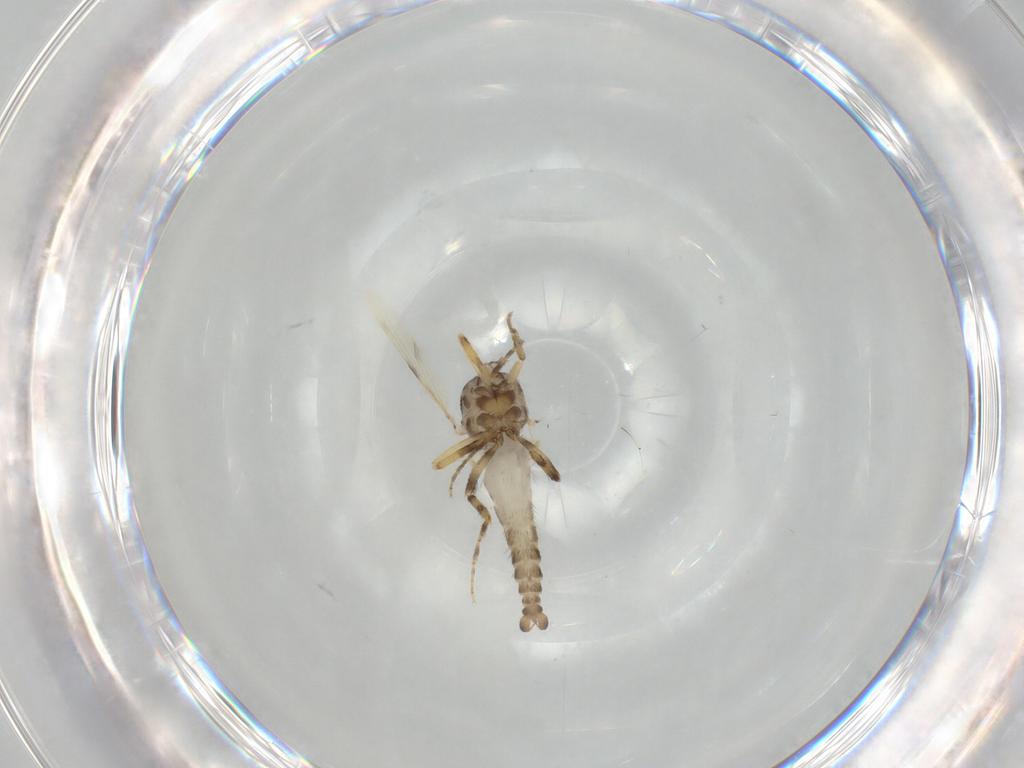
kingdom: Animalia
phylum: Arthropoda
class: Insecta
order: Diptera
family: Ceratopogonidae
